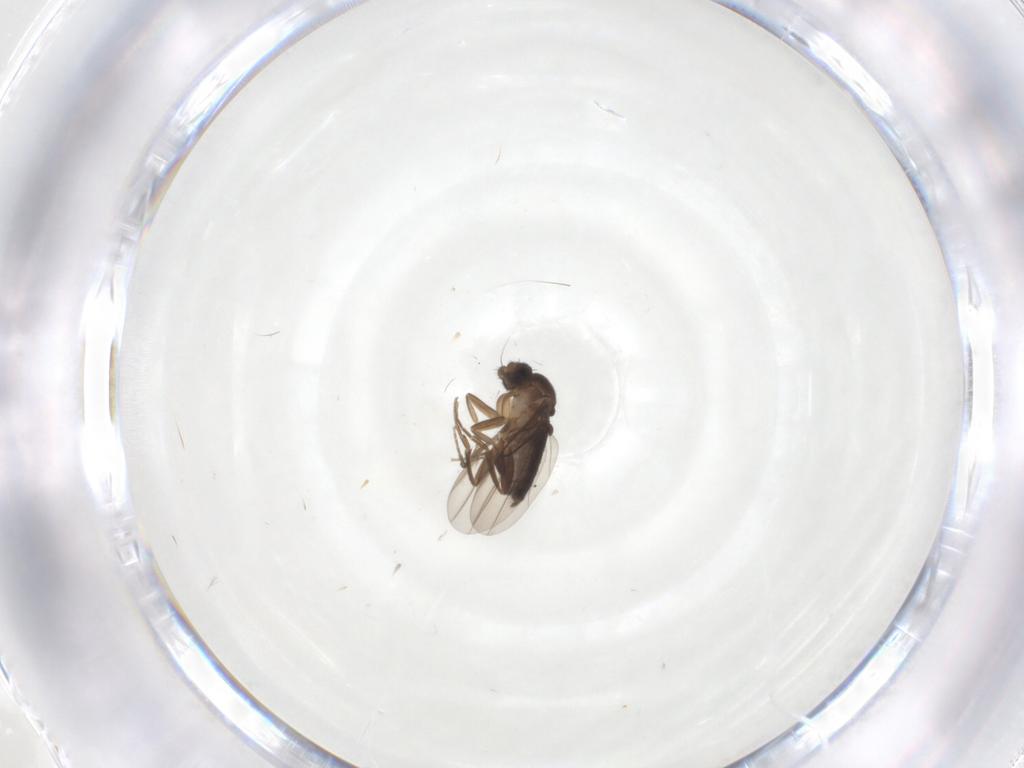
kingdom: Animalia
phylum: Arthropoda
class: Insecta
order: Diptera
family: Phoridae
